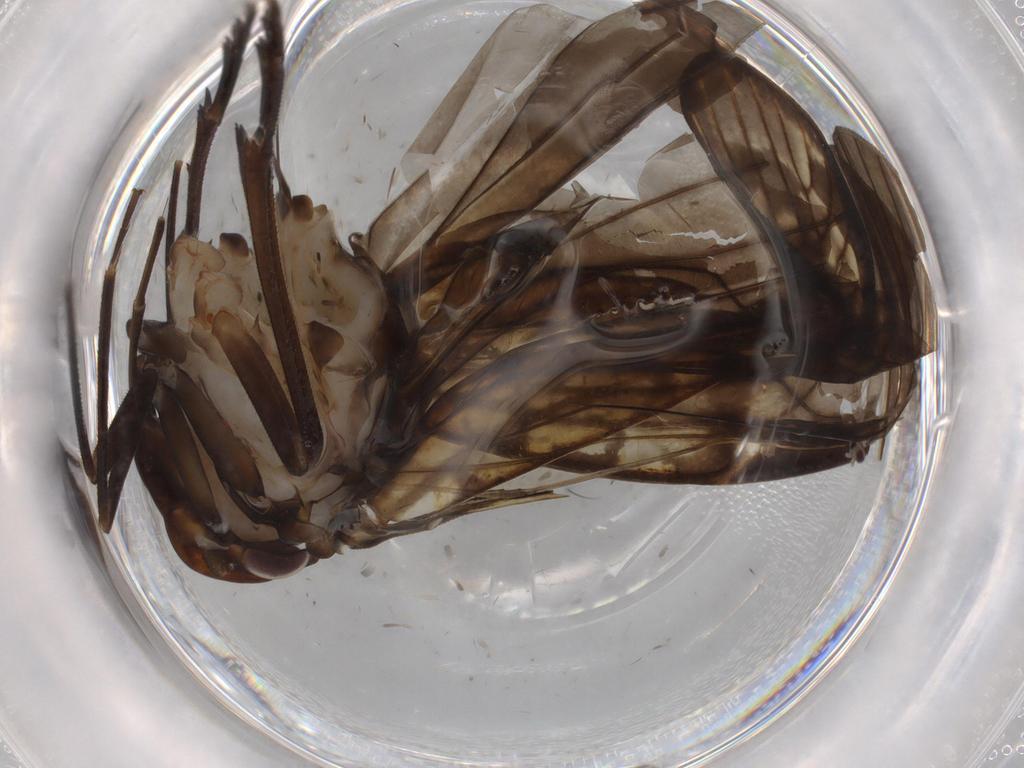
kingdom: Animalia
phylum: Arthropoda
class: Insecta
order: Hemiptera
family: Cixiidae
